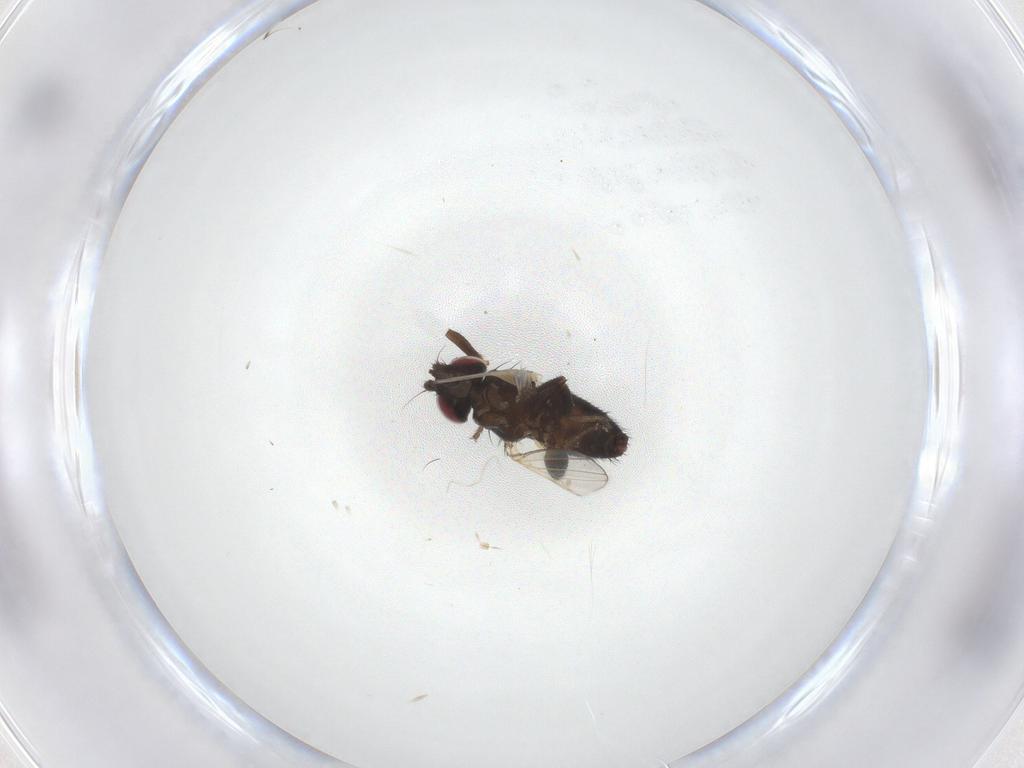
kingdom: Animalia
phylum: Arthropoda
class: Insecta
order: Diptera
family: Milichiidae
